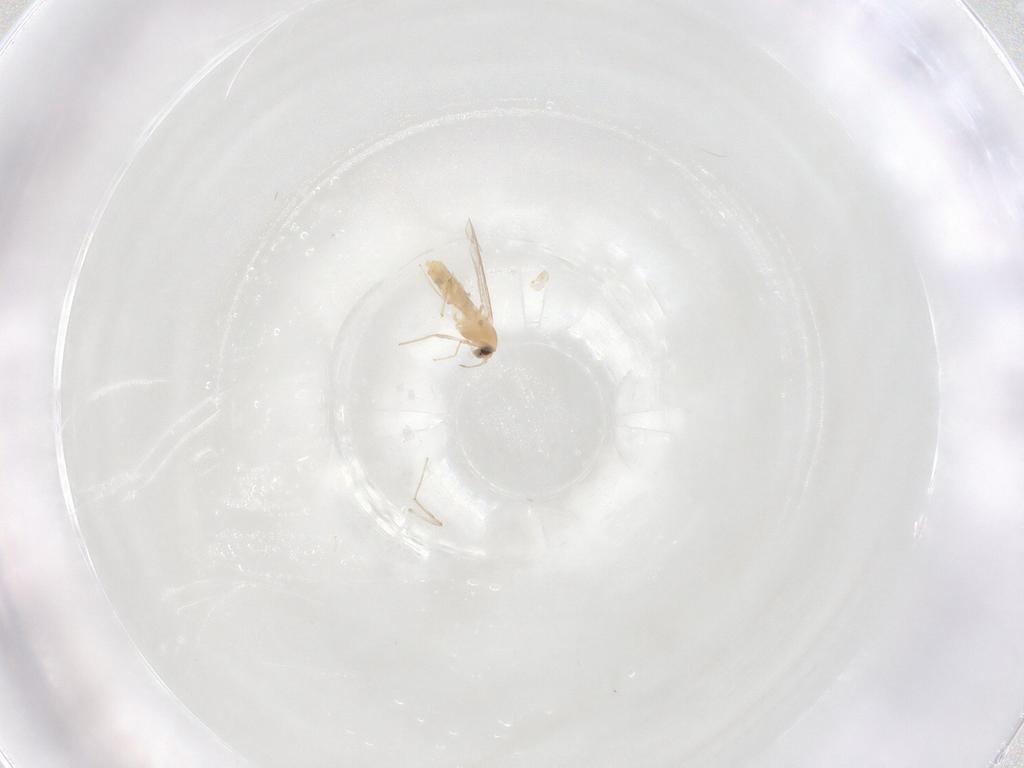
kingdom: Animalia
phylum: Arthropoda
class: Insecta
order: Diptera
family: Chironomidae
